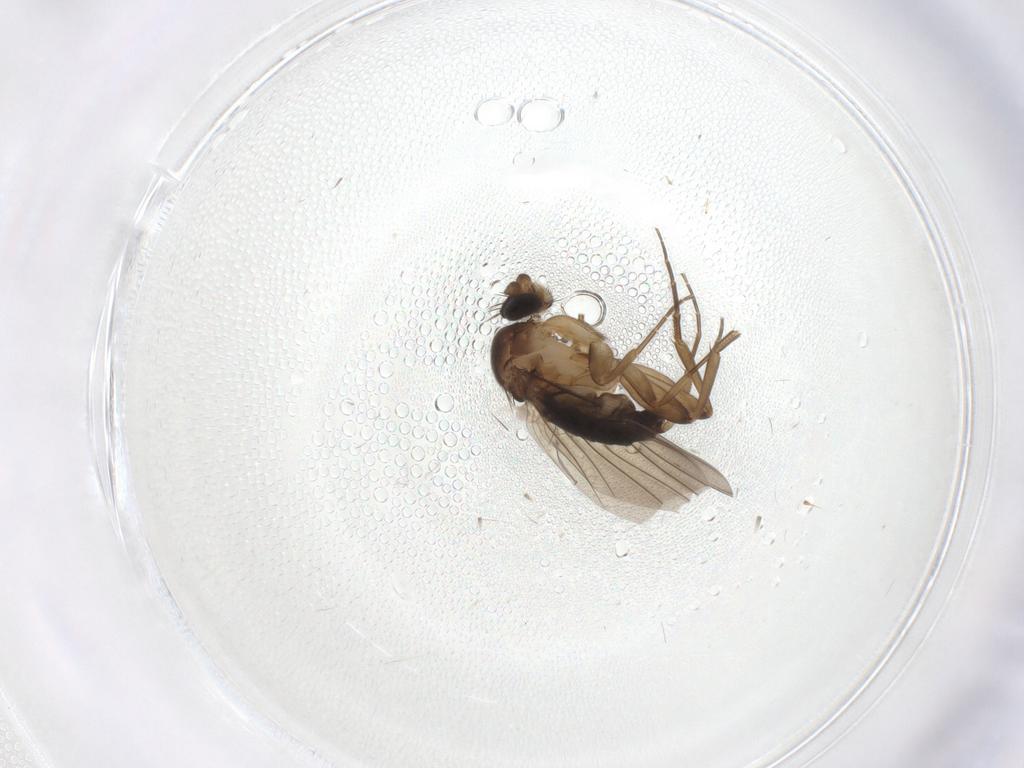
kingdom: Animalia
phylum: Arthropoda
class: Insecta
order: Diptera
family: Phoridae
